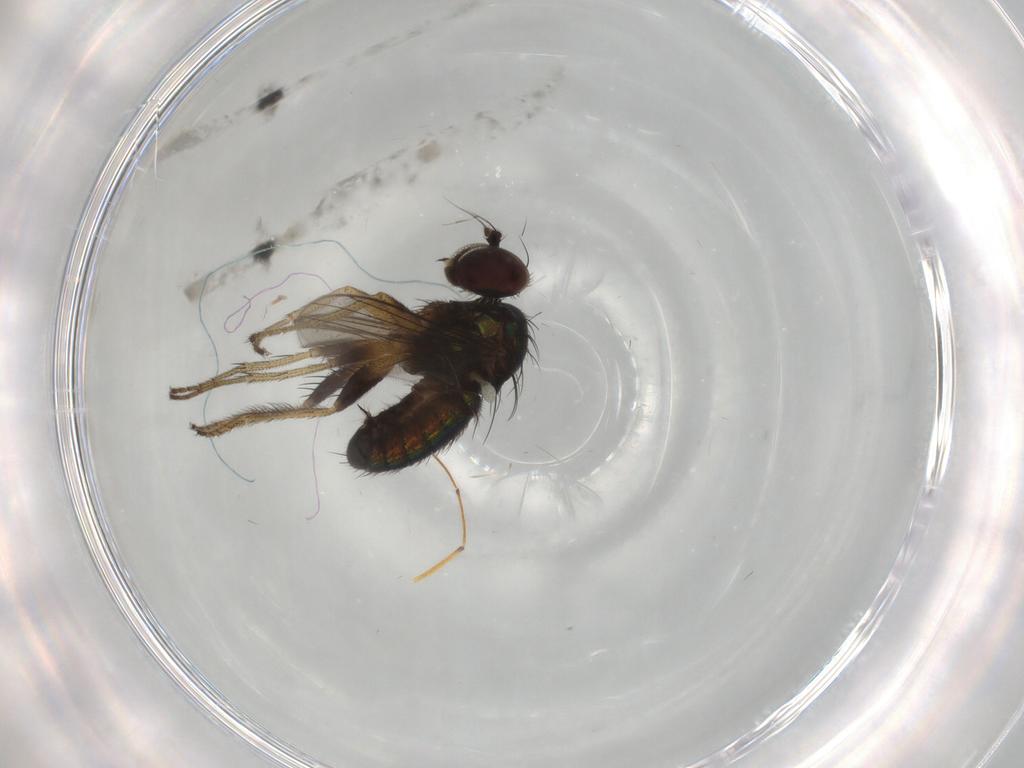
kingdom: Animalia
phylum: Arthropoda
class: Insecta
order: Diptera
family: Dolichopodidae
